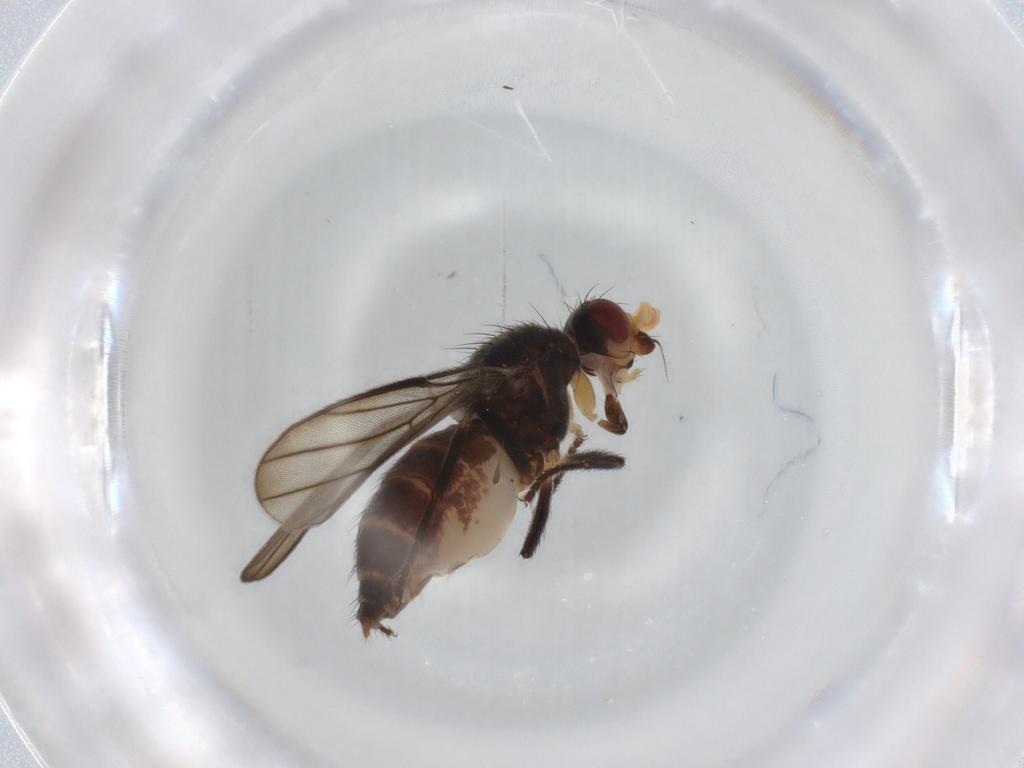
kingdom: Animalia
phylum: Arthropoda
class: Insecta
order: Diptera
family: Chloropidae
